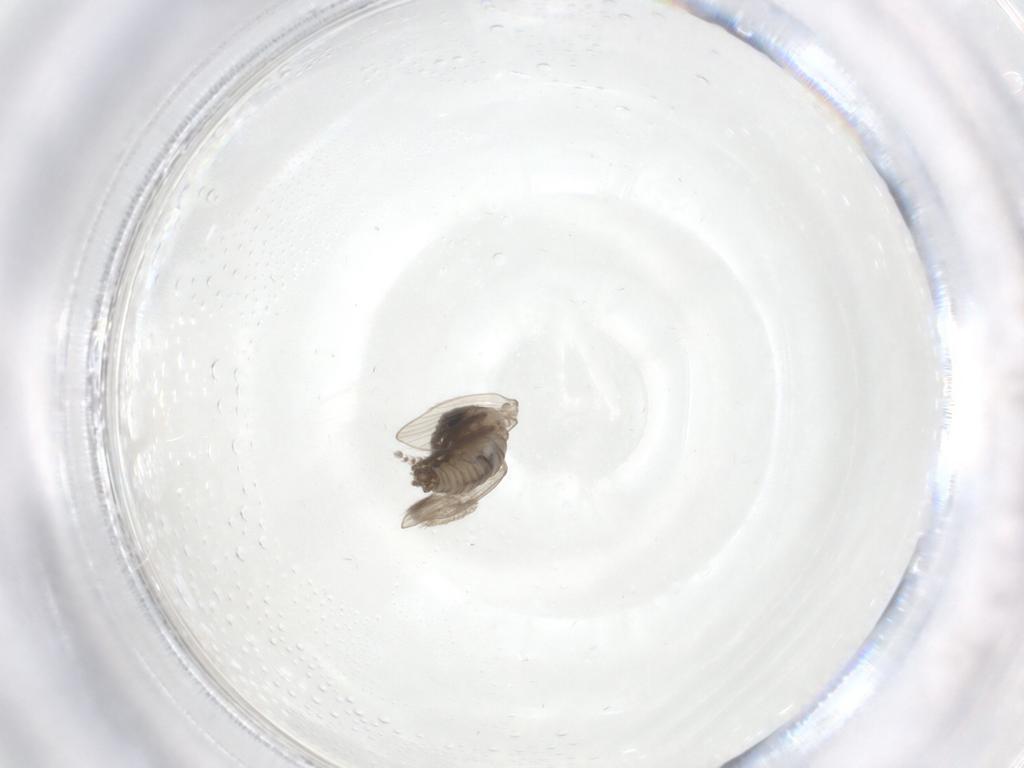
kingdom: Animalia
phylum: Arthropoda
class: Insecta
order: Diptera
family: Psychodidae
